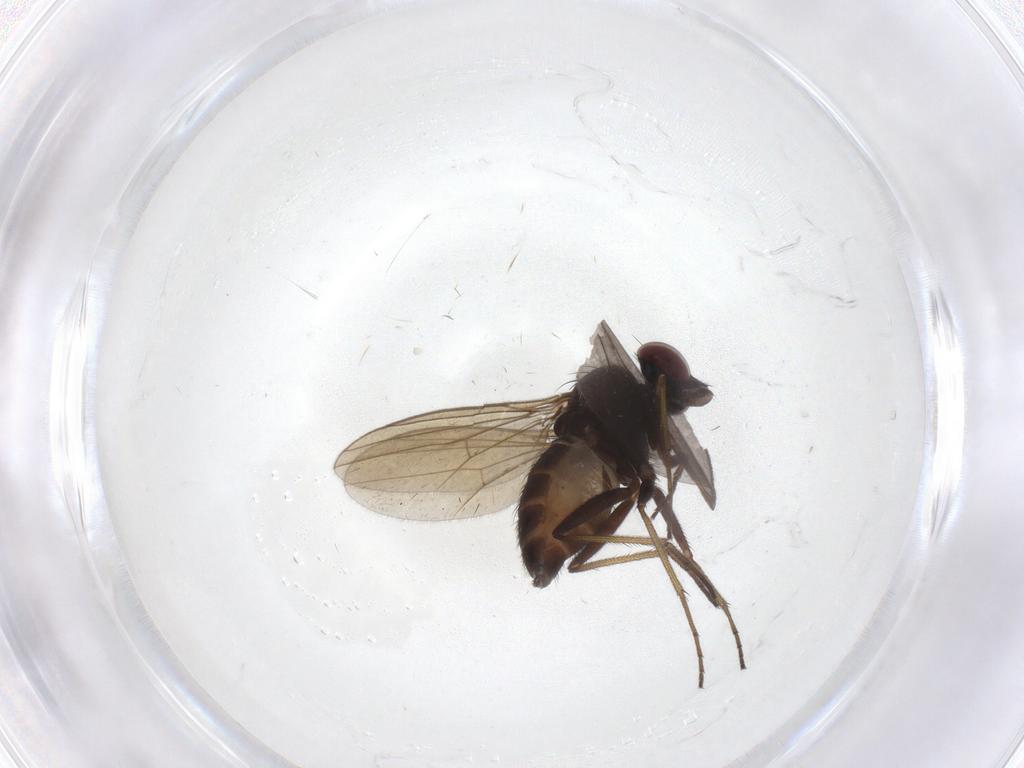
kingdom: Animalia
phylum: Arthropoda
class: Insecta
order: Diptera
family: Dolichopodidae
